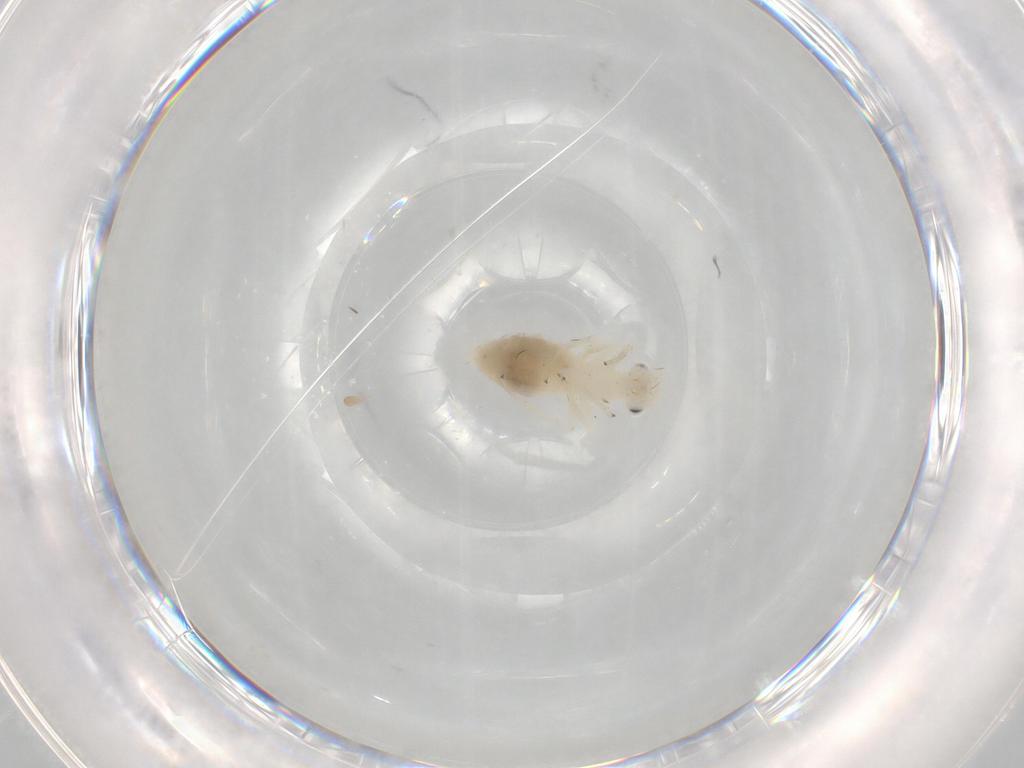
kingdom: Animalia
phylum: Arthropoda
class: Insecta
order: Psocodea
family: Caeciliusidae
